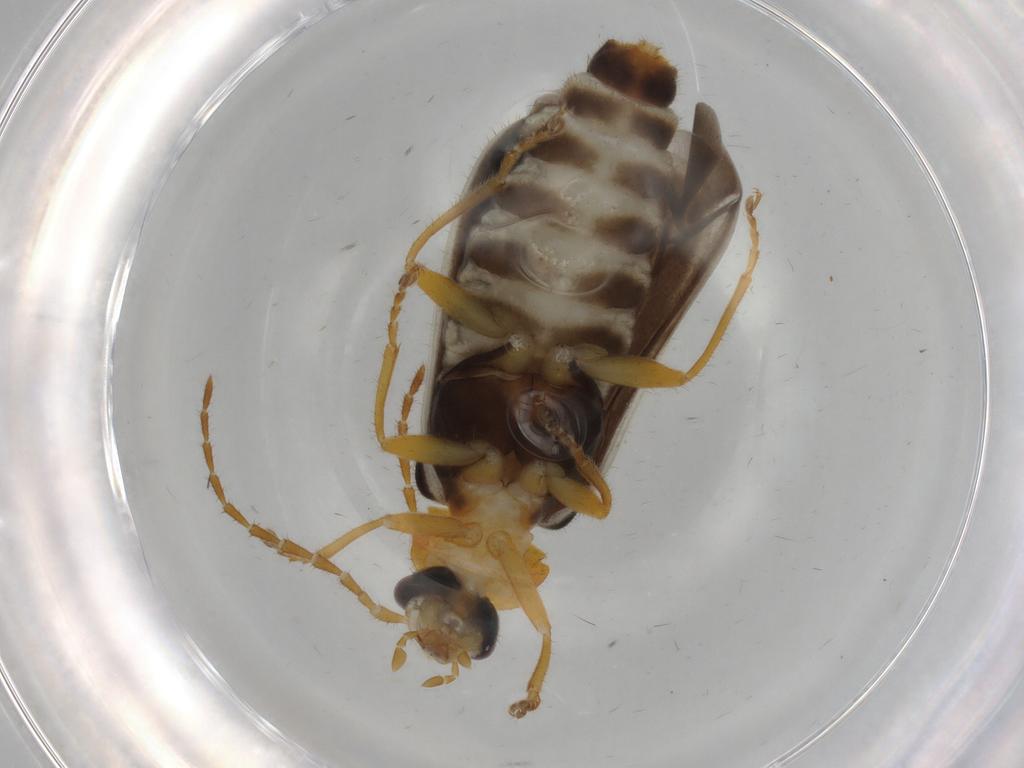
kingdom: Animalia
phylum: Arthropoda
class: Insecta
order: Coleoptera
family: Cantharidae
